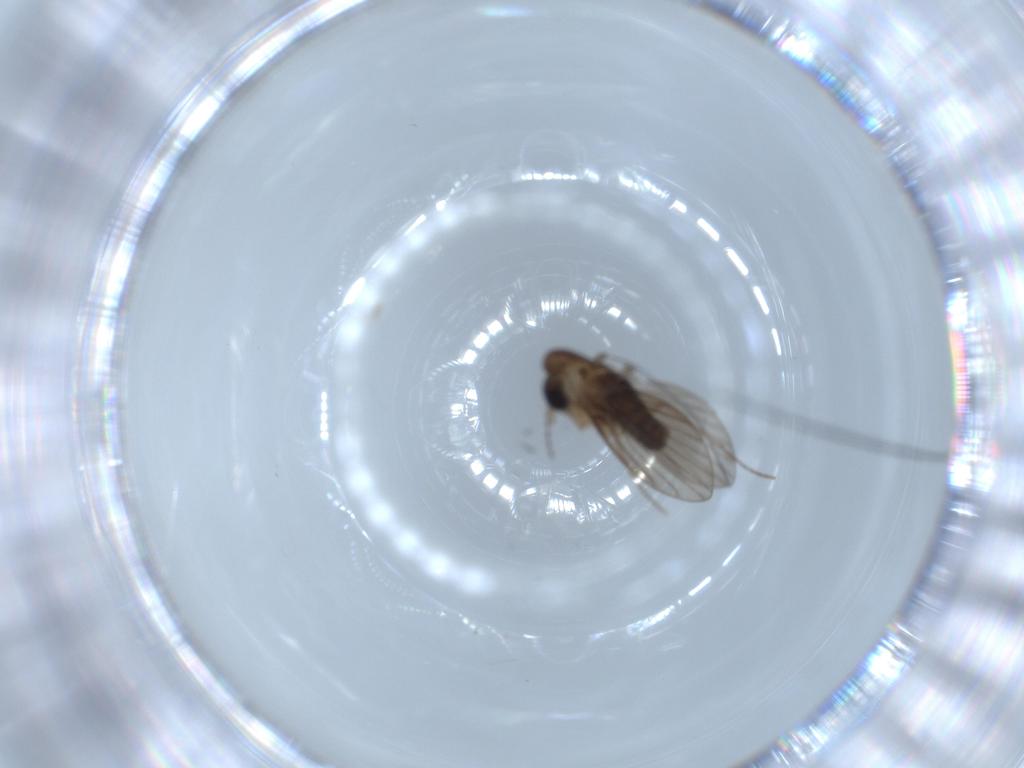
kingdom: Animalia
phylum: Arthropoda
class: Insecta
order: Diptera
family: Psychodidae
